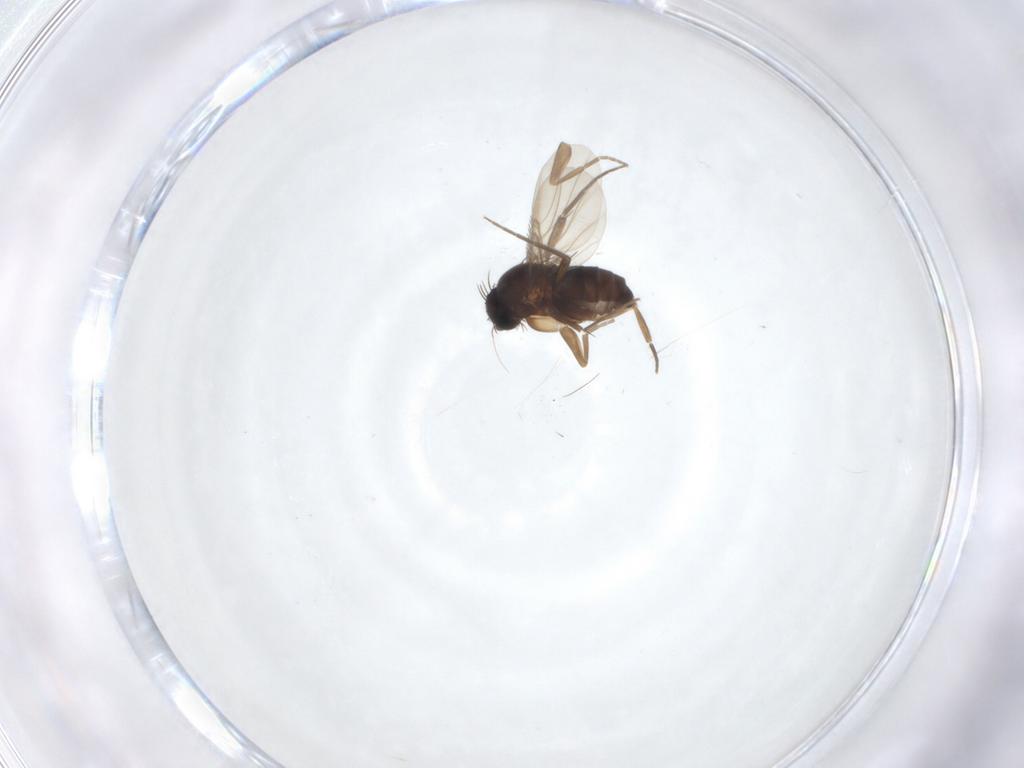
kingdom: Animalia
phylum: Arthropoda
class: Insecta
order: Diptera
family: Phoridae
